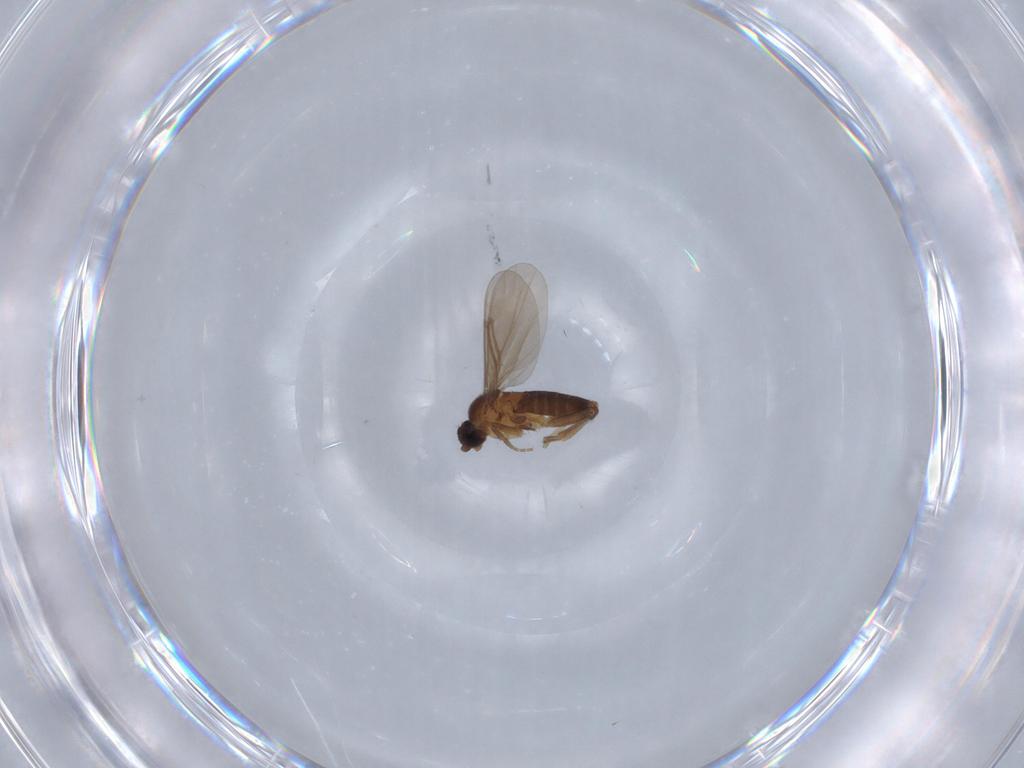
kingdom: Animalia
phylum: Arthropoda
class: Insecta
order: Diptera
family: Phoridae
